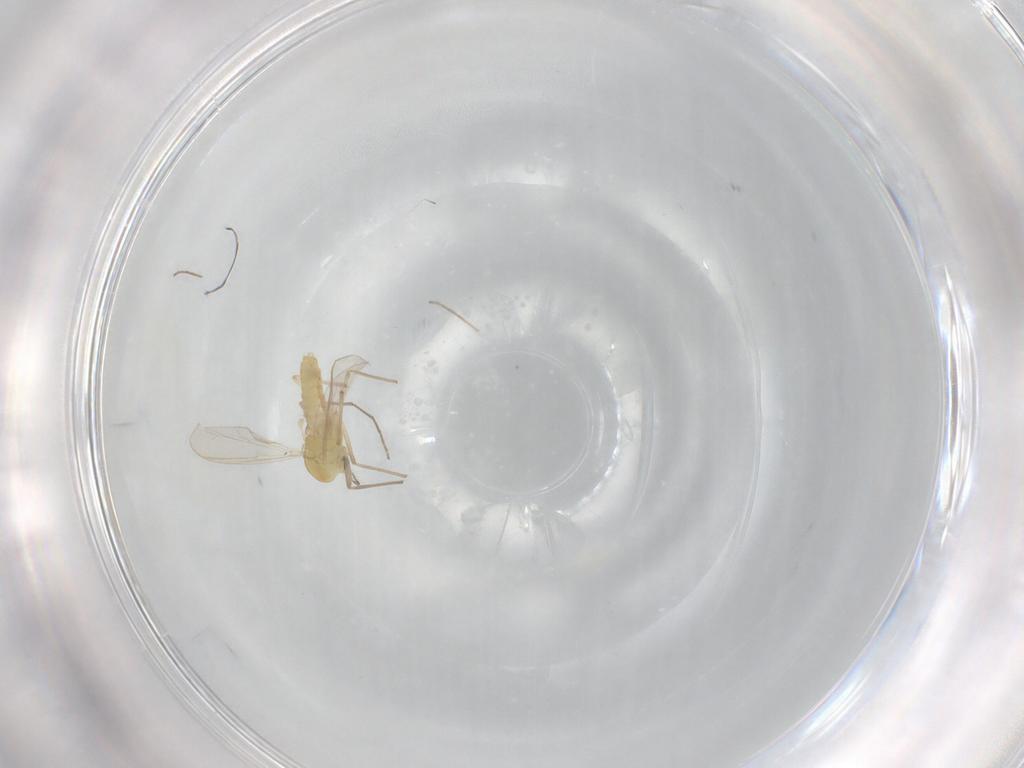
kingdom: Animalia
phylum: Arthropoda
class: Insecta
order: Diptera
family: Chironomidae
